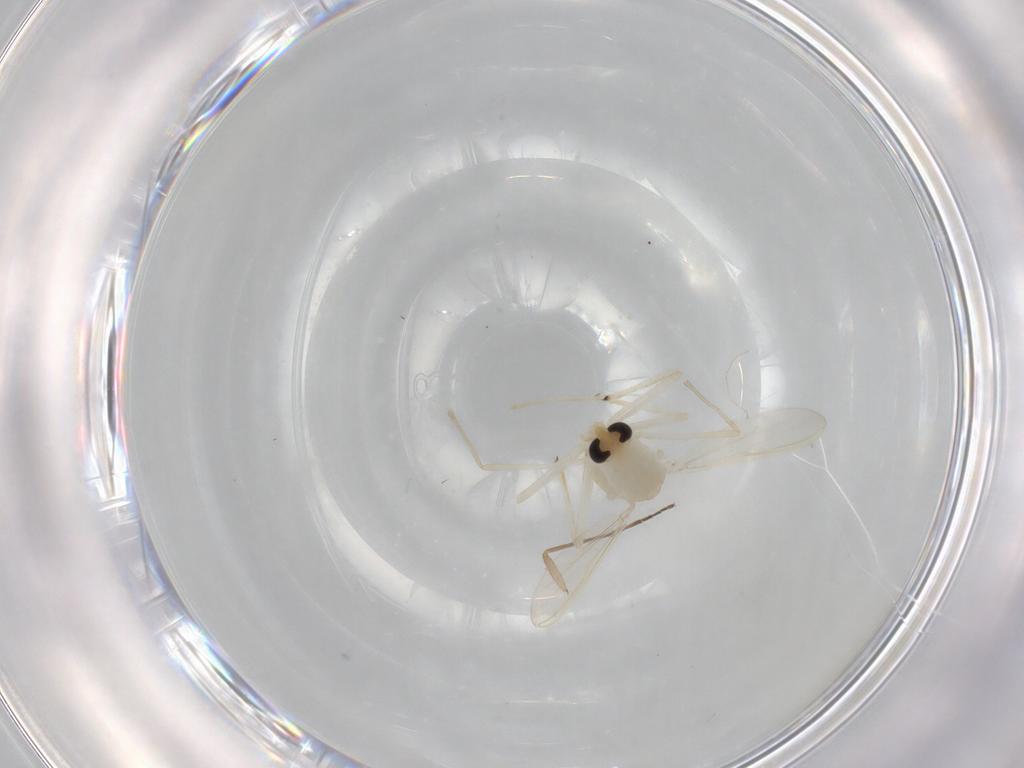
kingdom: Animalia
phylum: Arthropoda
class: Insecta
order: Diptera
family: Chironomidae
